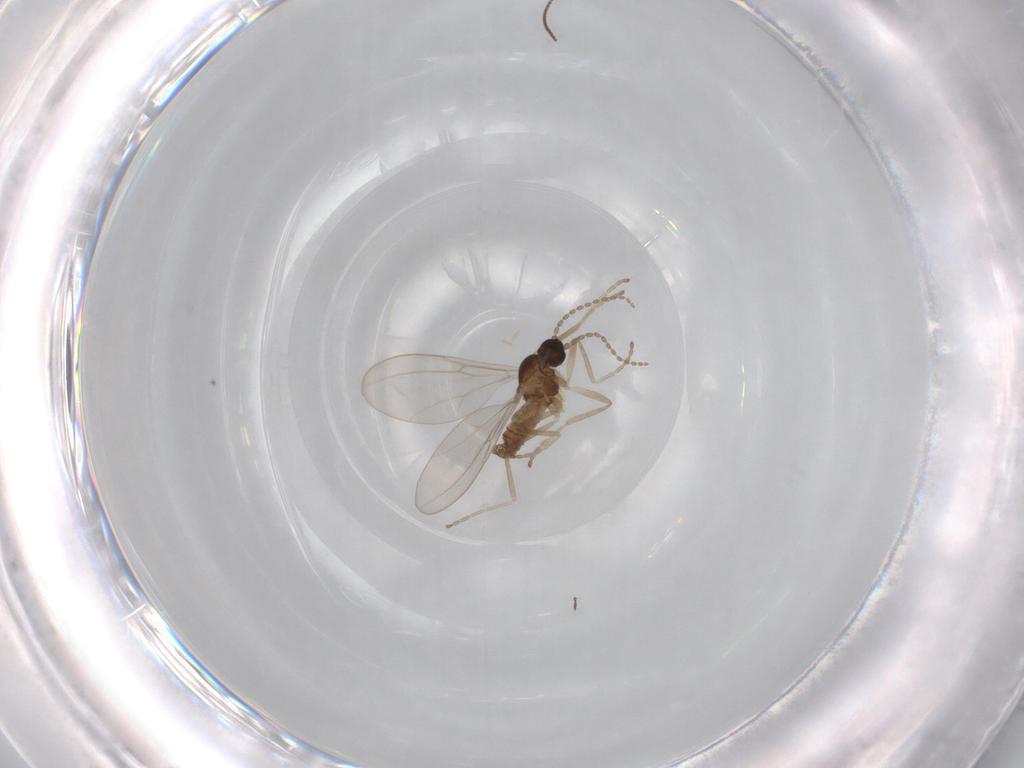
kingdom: Animalia
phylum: Arthropoda
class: Insecta
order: Diptera
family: Cecidomyiidae
